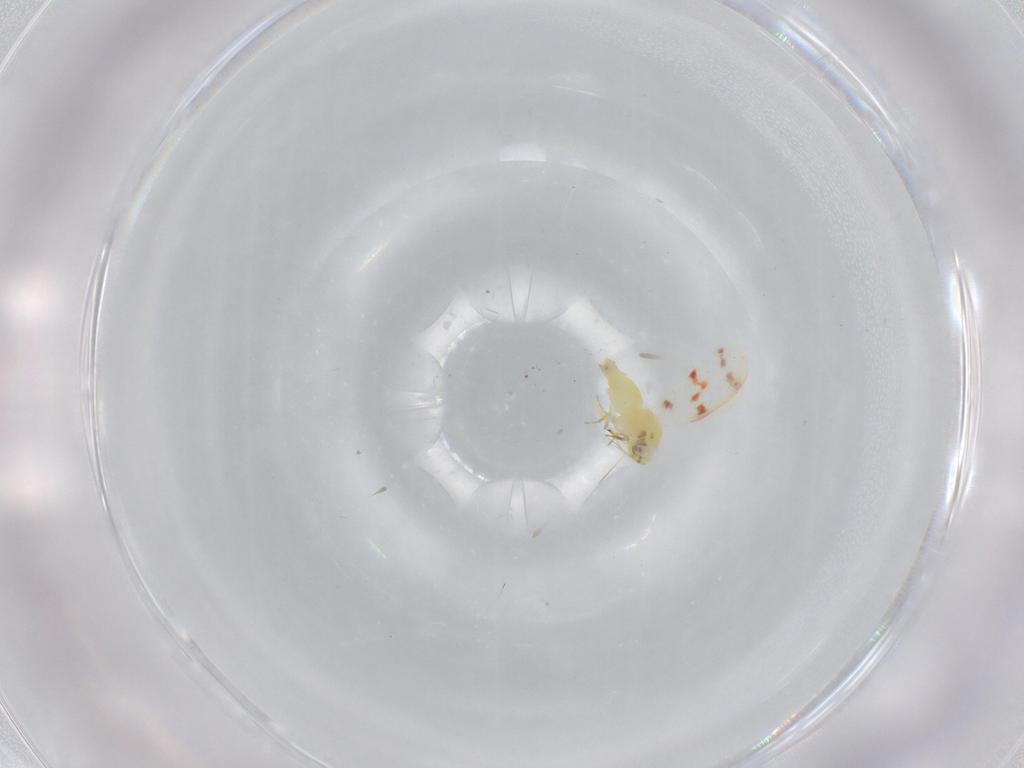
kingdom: Animalia
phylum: Arthropoda
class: Insecta
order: Hemiptera
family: Aleyrodidae
